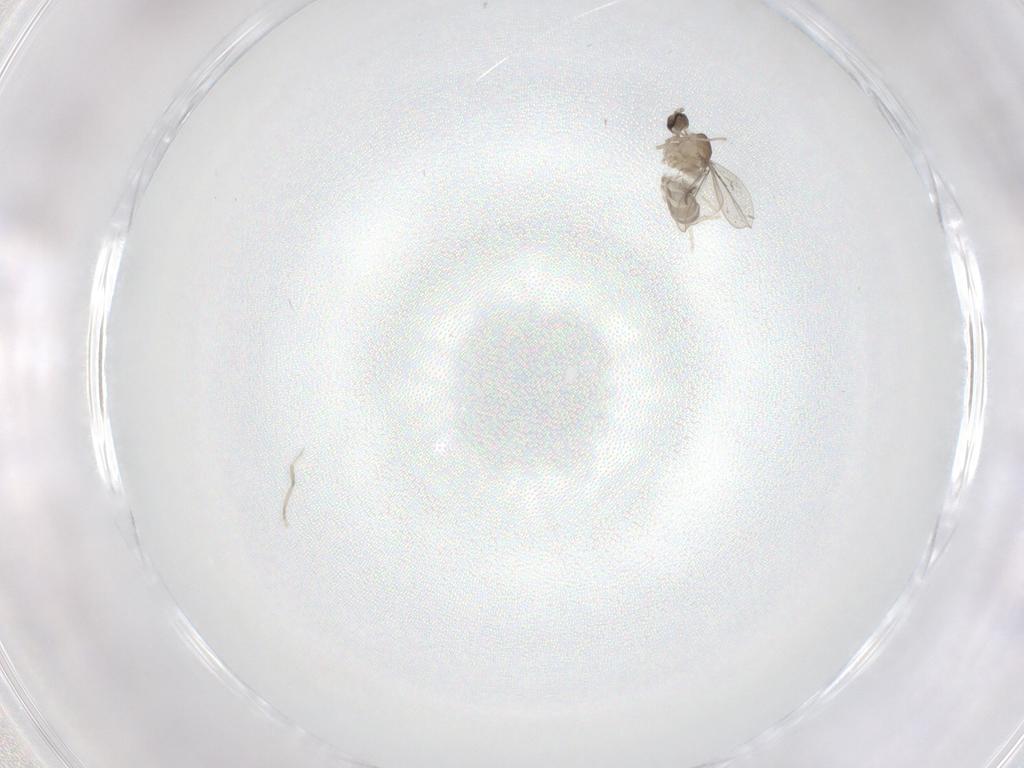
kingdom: Animalia
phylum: Arthropoda
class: Insecta
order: Diptera
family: Cecidomyiidae
